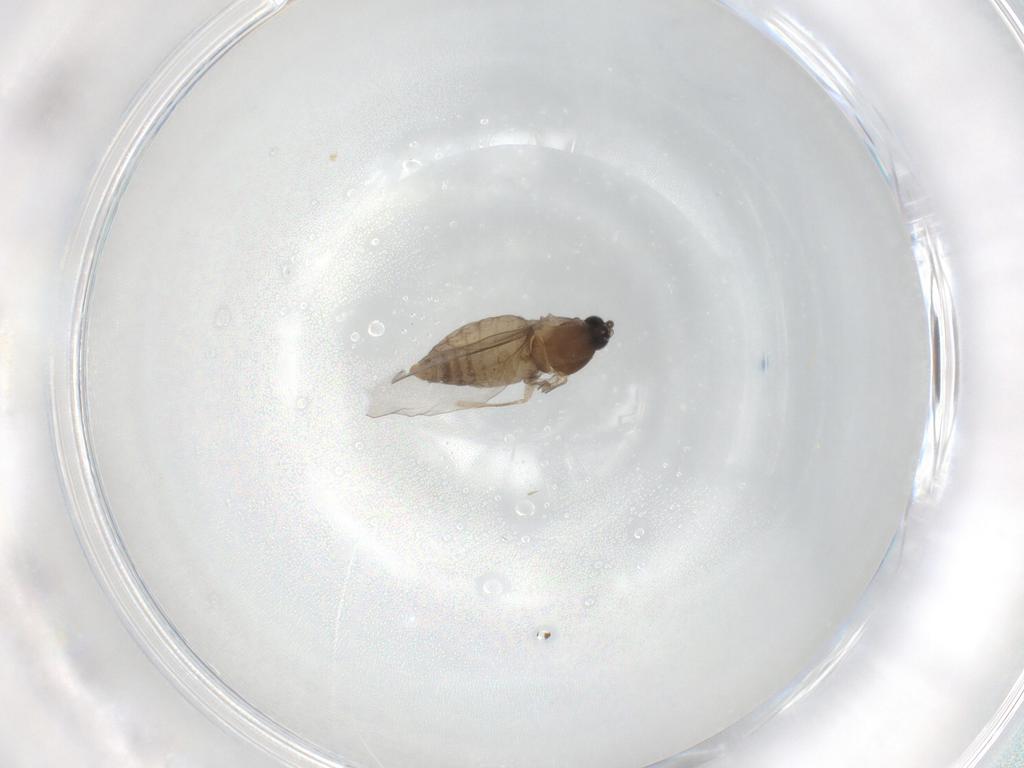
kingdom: Animalia
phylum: Arthropoda
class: Insecta
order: Diptera
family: Cecidomyiidae
